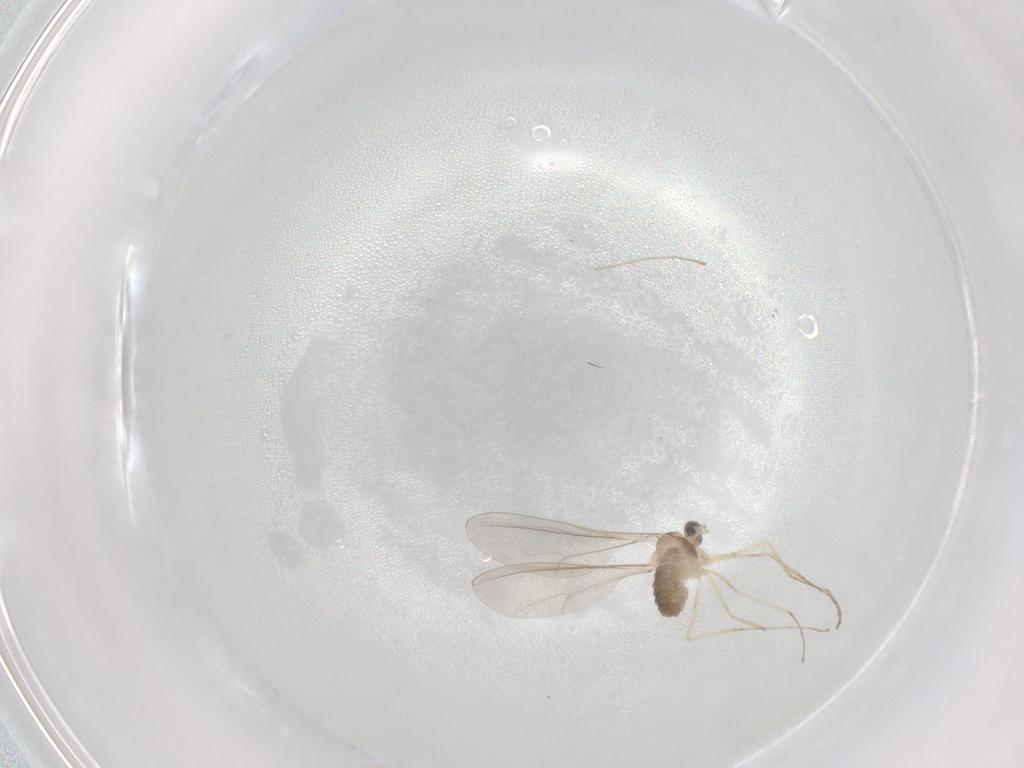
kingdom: Animalia
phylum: Arthropoda
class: Insecta
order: Diptera
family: Cecidomyiidae
